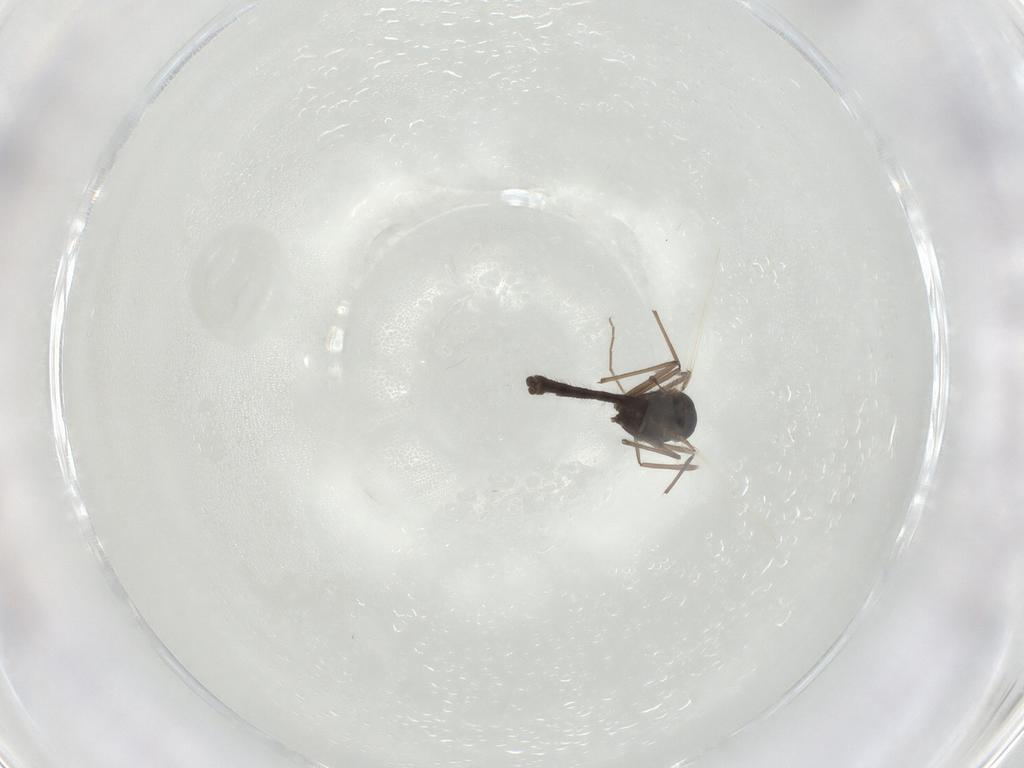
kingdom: Animalia
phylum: Arthropoda
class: Insecta
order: Diptera
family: Chironomidae
